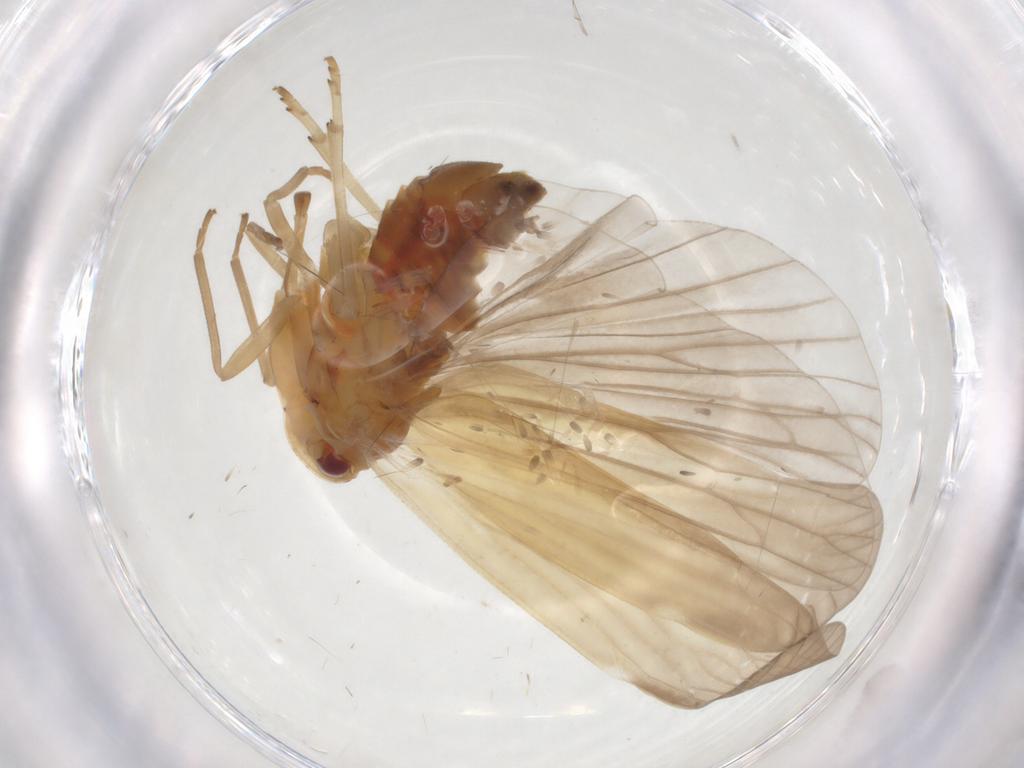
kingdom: Animalia
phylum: Arthropoda
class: Insecta
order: Hemiptera
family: Derbidae
